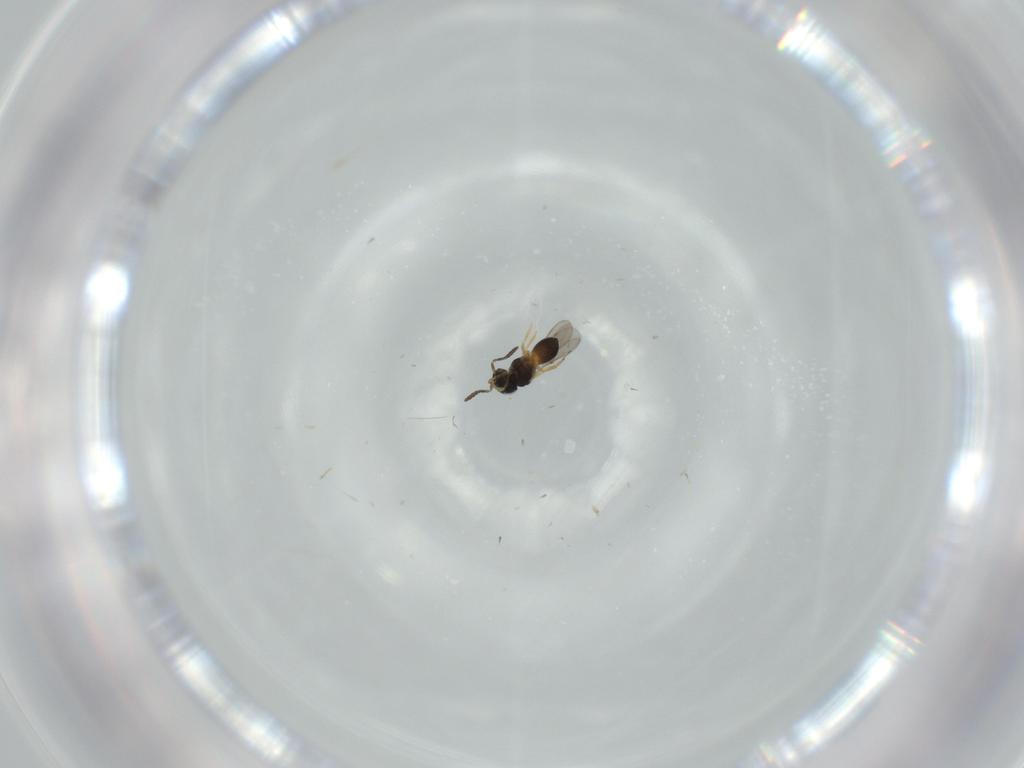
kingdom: Animalia
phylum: Arthropoda
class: Insecta
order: Hymenoptera
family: Scelionidae
